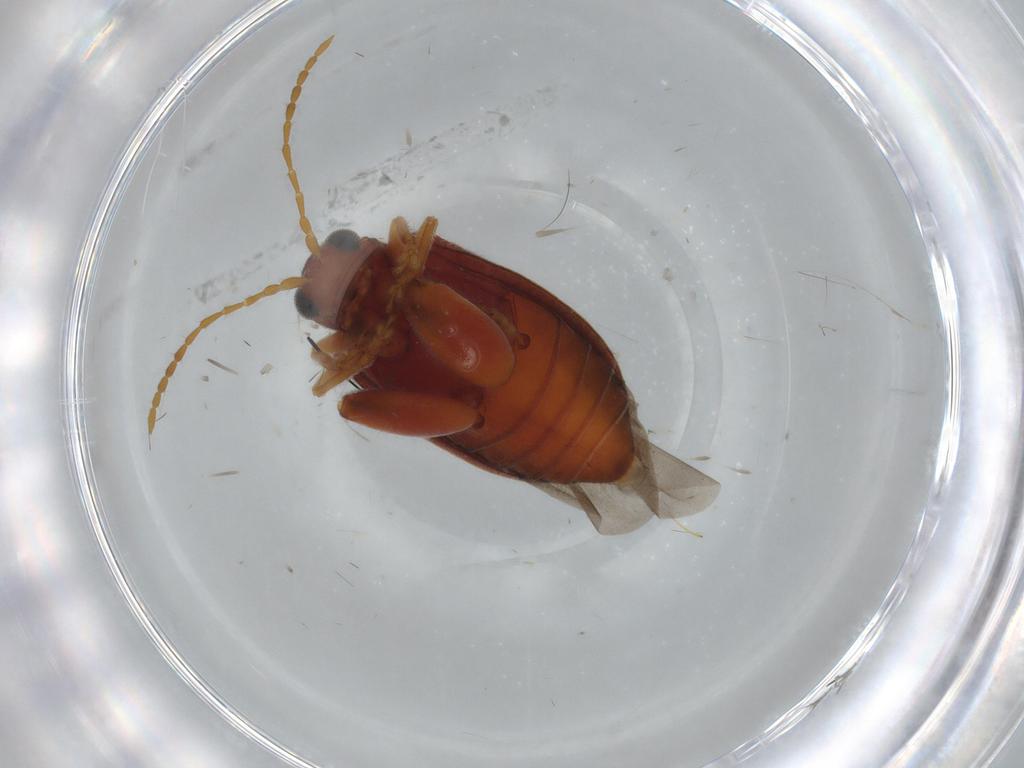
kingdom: Animalia
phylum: Arthropoda
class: Insecta
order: Coleoptera
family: Chrysomelidae
